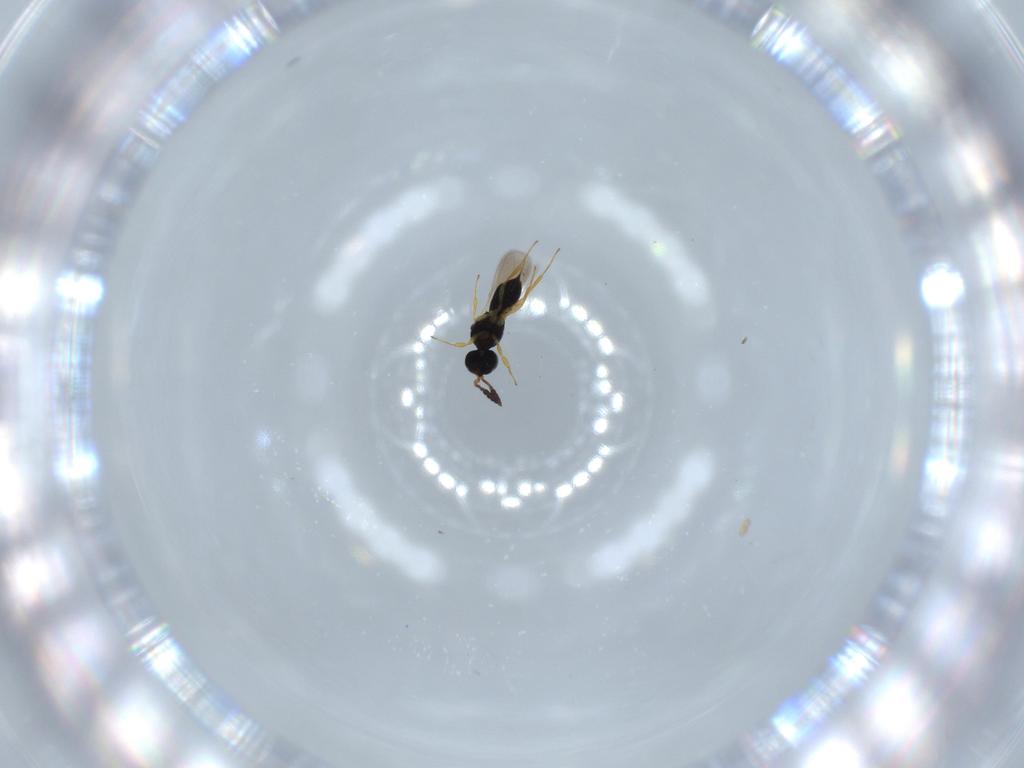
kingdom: Animalia
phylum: Arthropoda
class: Insecta
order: Hymenoptera
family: Scelionidae
